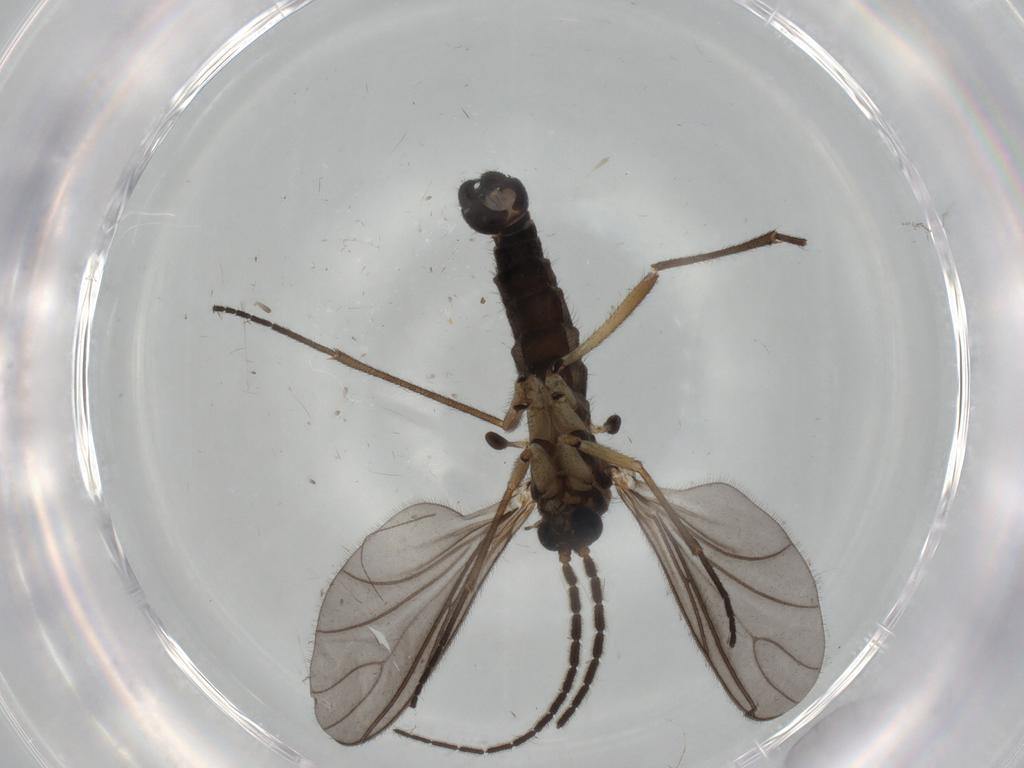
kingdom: Animalia
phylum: Arthropoda
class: Insecta
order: Diptera
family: Sciaridae
